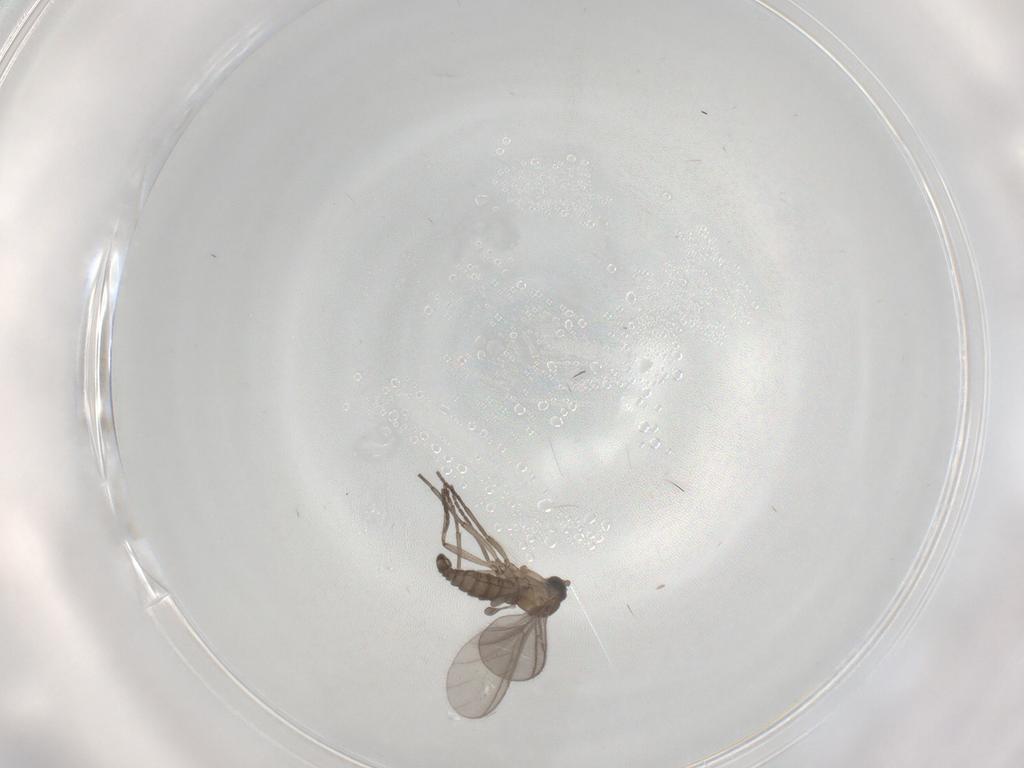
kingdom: Animalia
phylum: Arthropoda
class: Insecta
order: Diptera
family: Sciaridae
